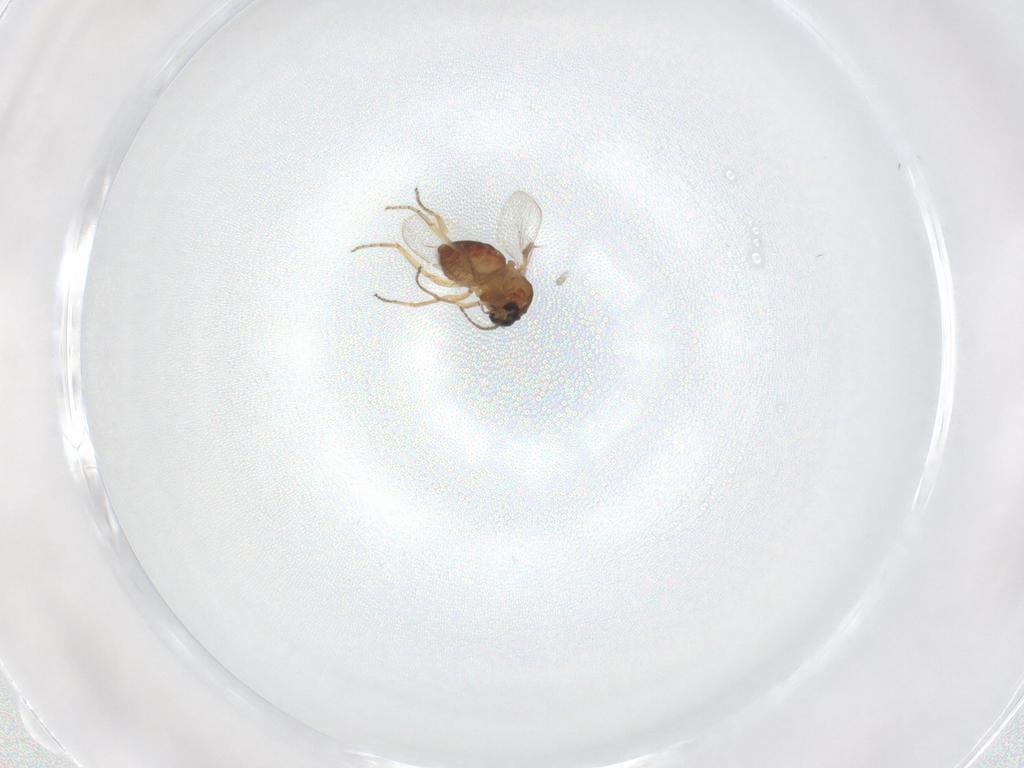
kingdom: Animalia
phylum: Arthropoda
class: Insecta
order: Diptera
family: Ceratopogonidae
